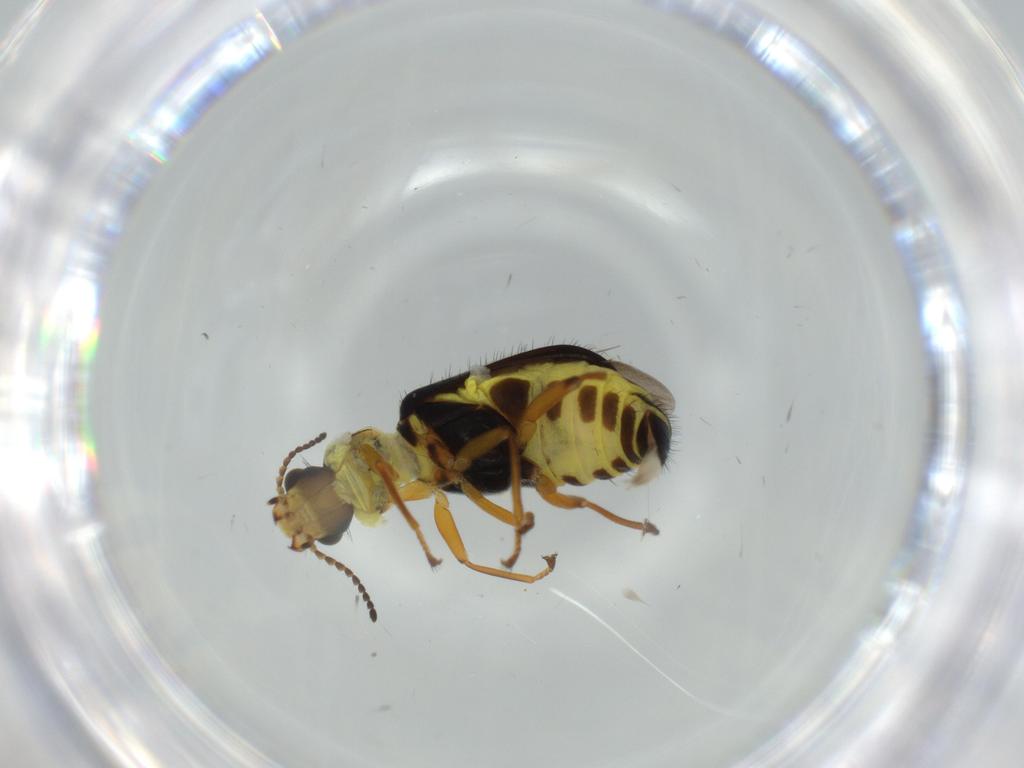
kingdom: Animalia
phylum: Arthropoda
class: Insecta
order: Coleoptera
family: Melyridae
